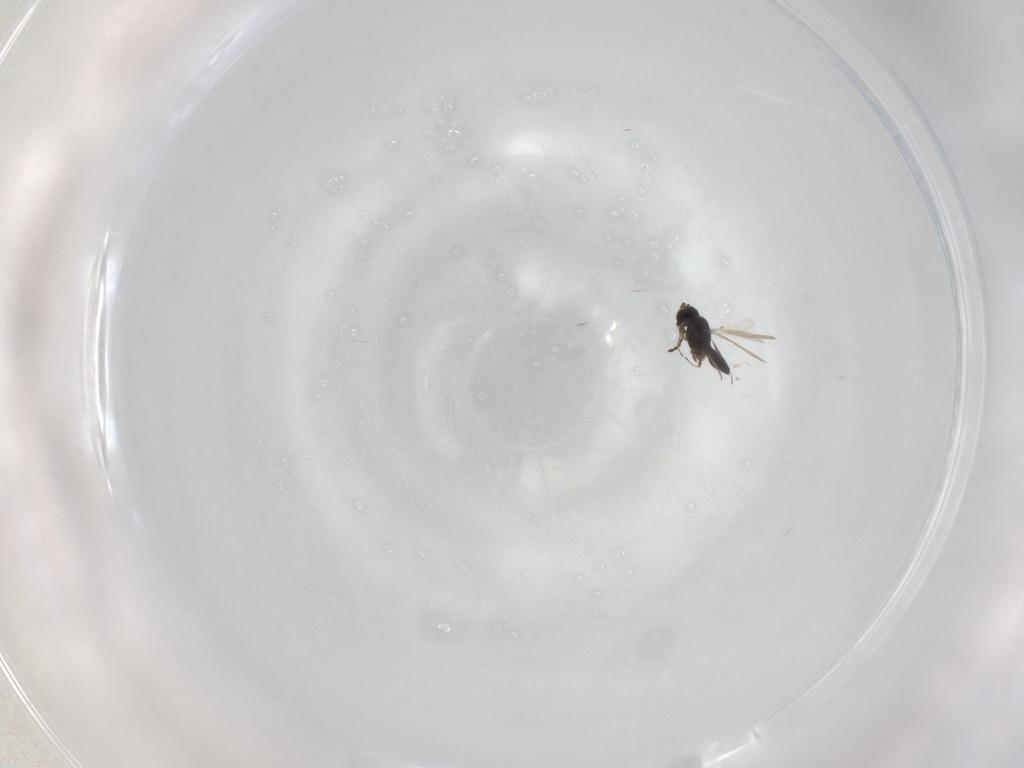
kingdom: Animalia
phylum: Arthropoda
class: Insecta
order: Hymenoptera
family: Scelionidae
